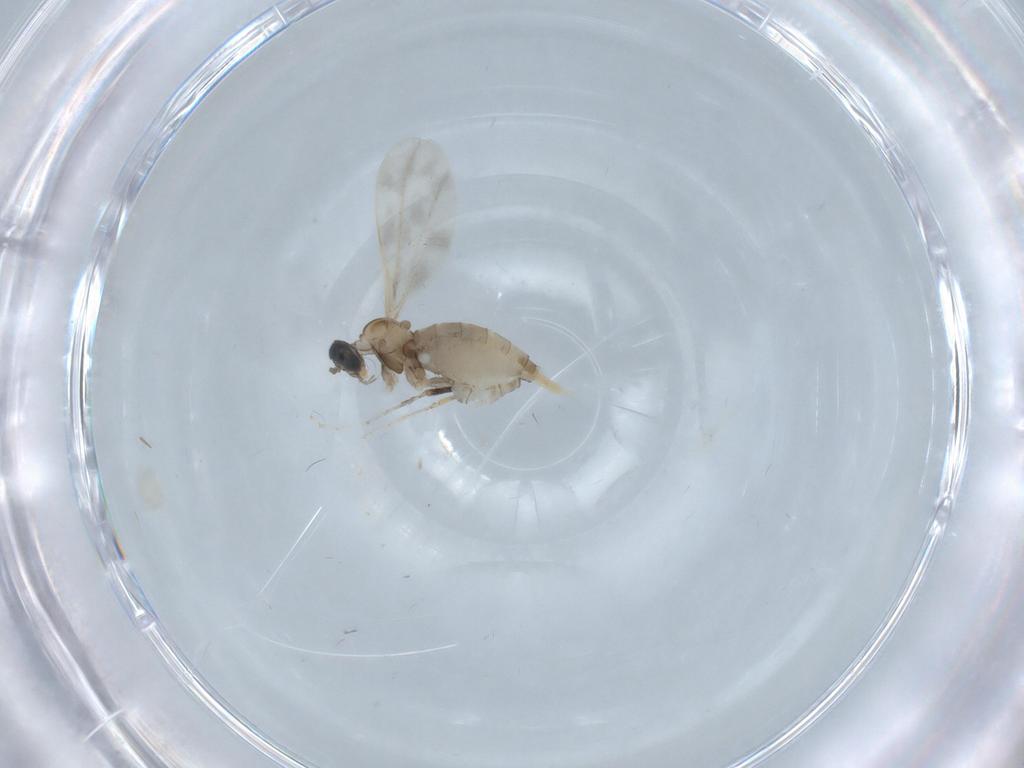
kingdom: Animalia
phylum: Arthropoda
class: Insecta
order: Diptera
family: Cecidomyiidae
